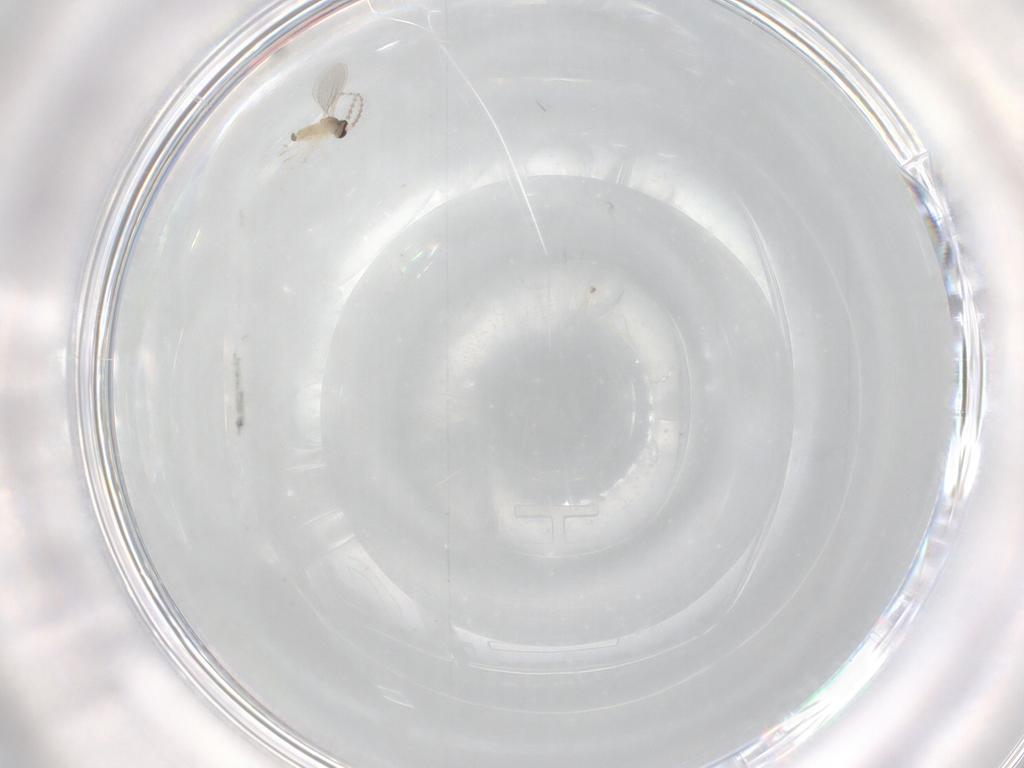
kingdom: Animalia
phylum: Arthropoda
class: Insecta
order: Diptera
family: Cecidomyiidae
